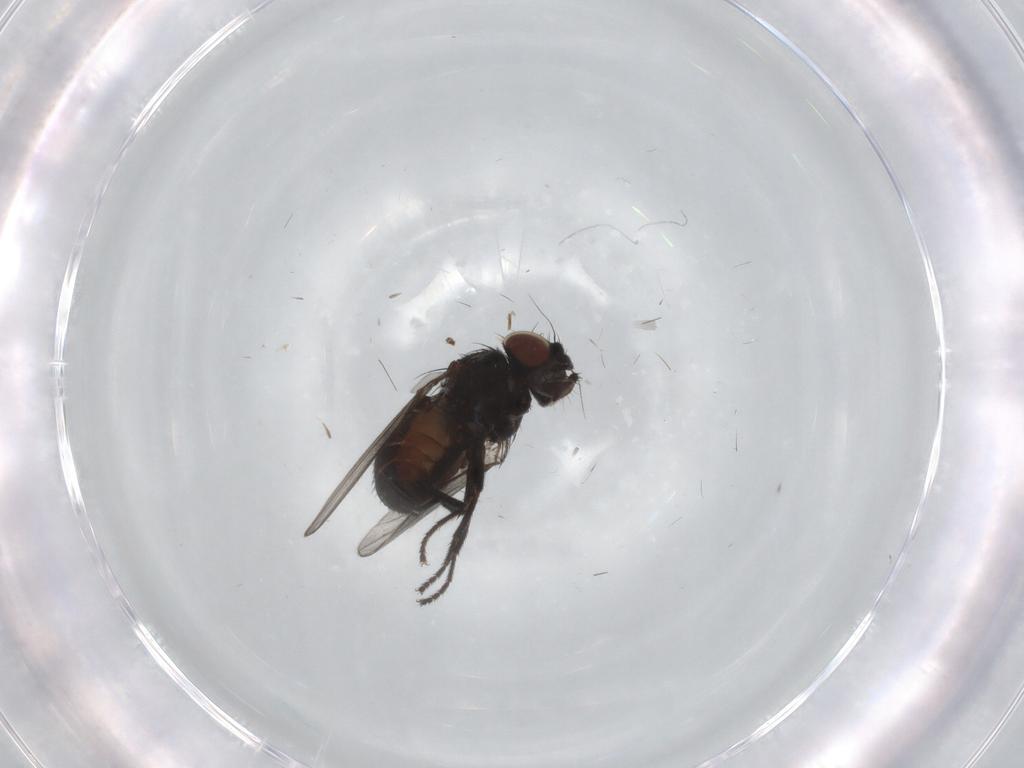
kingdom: Animalia
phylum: Arthropoda
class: Insecta
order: Diptera
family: Milichiidae
